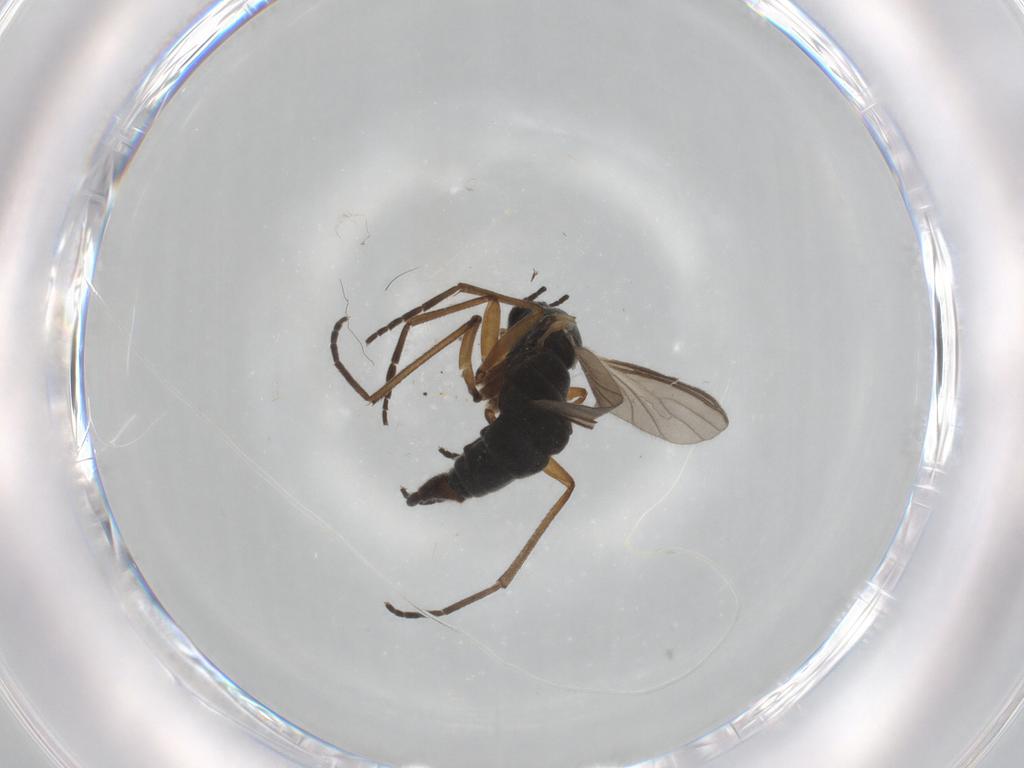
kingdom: Animalia
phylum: Arthropoda
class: Insecta
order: Diptera
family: Sciaridae
